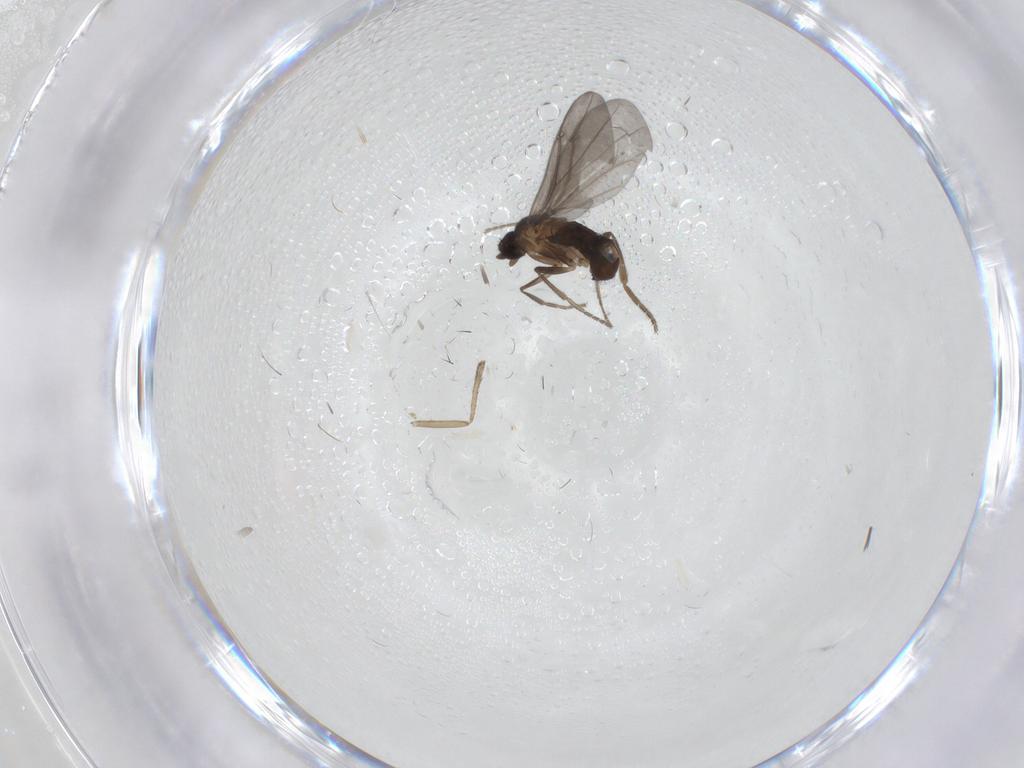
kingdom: Animalia
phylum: Arthropoda
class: Insecta
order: Diptera
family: Phoridae
